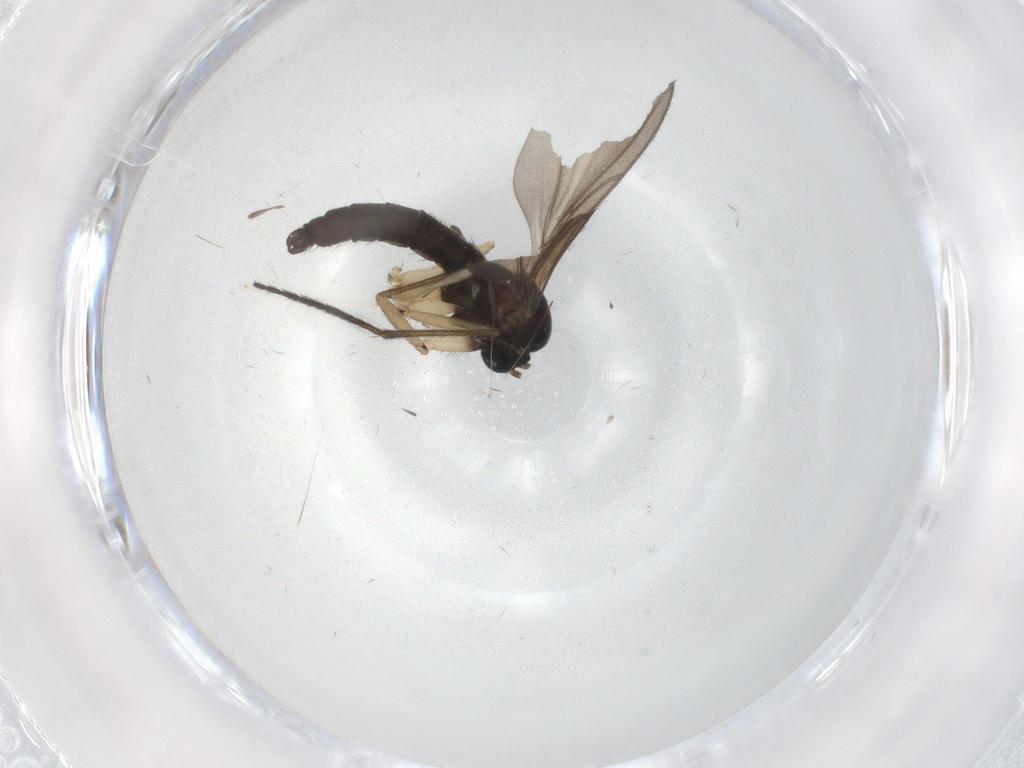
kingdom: Animalia
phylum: Arthropoda
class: Insecta
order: Diptera
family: Sciaridae
